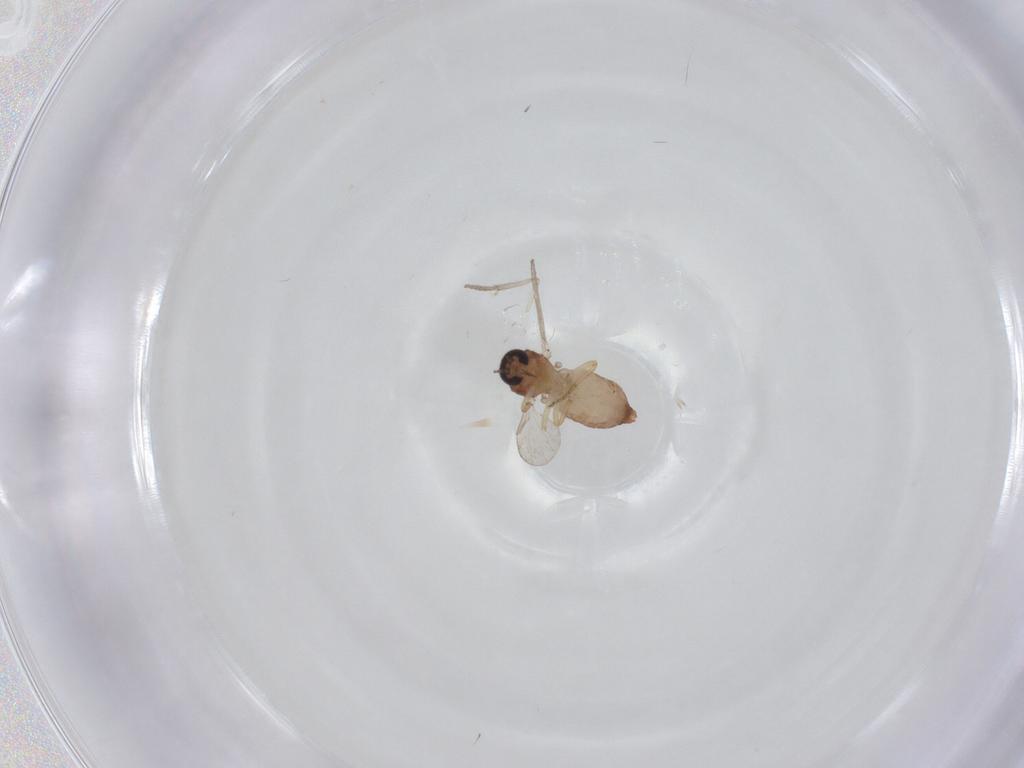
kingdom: Animalia
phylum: Arthropoda
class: Insecta
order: Diptera
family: Ceratopogonidae
